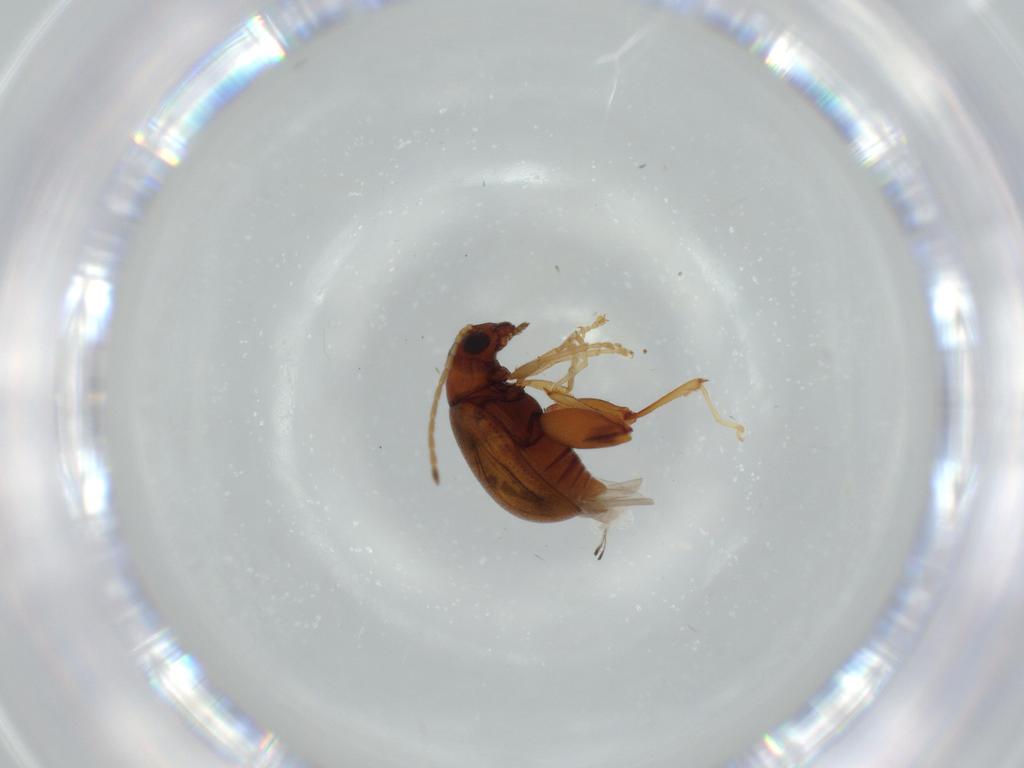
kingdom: Animalia
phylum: Arthropoda
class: Insecta
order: Coleoptera
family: Chrysomelidae
